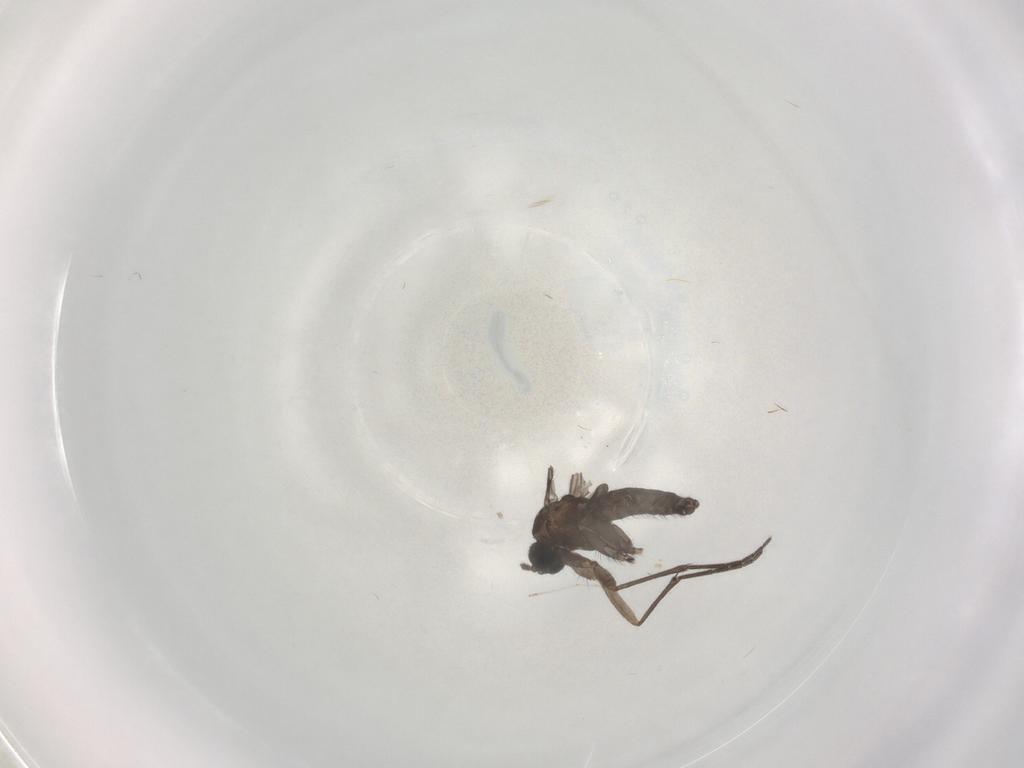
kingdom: Animalia
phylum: Arthropoda
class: Insecta
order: Diptera
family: Sciaridae
